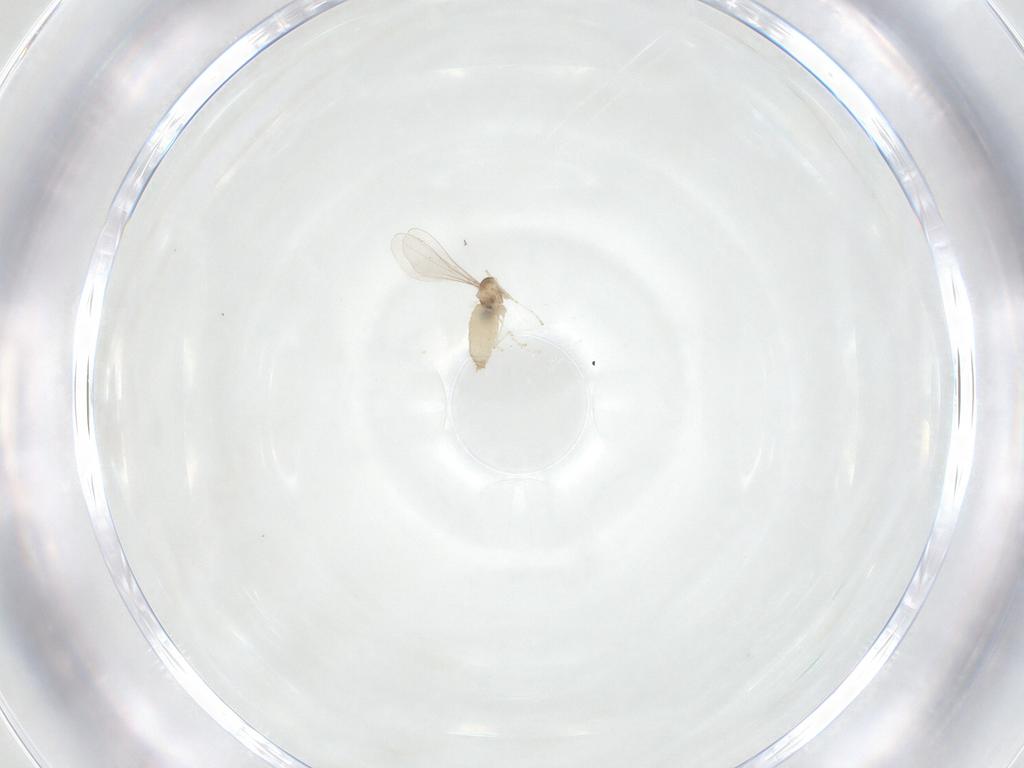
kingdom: Animalia
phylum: Arthropoda
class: Insecta
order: Diptera
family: Cecidomyiidae
